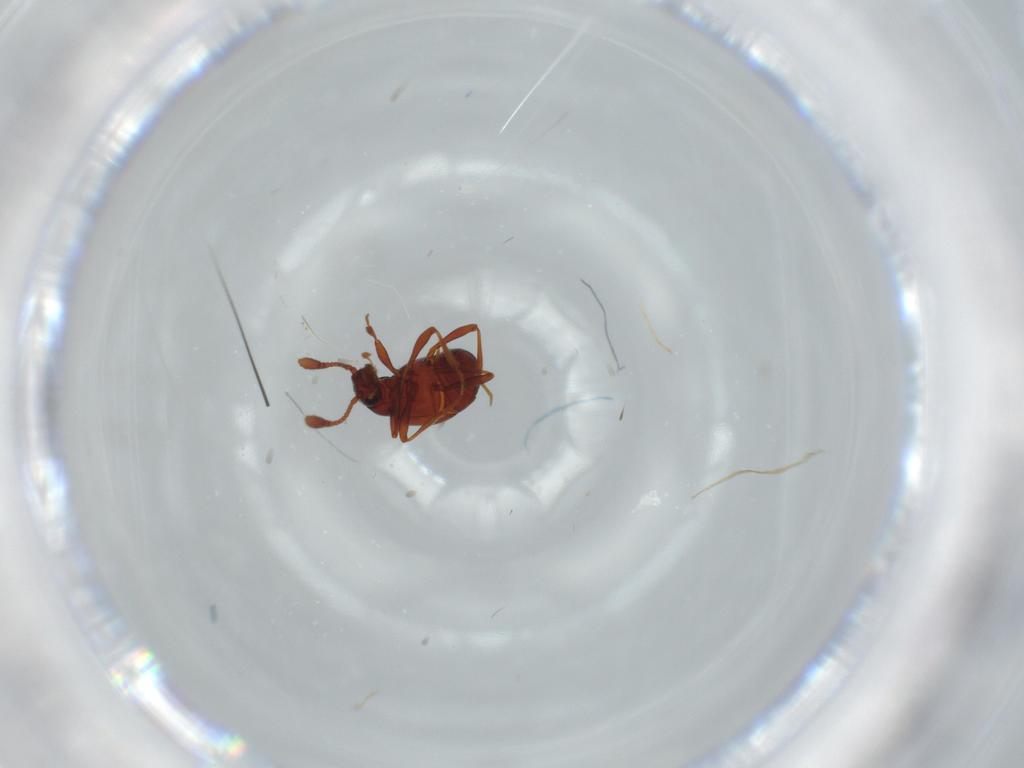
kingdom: Animalia
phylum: Arthropoda
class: Insecta
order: Coleoptera
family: Staphylinidae
